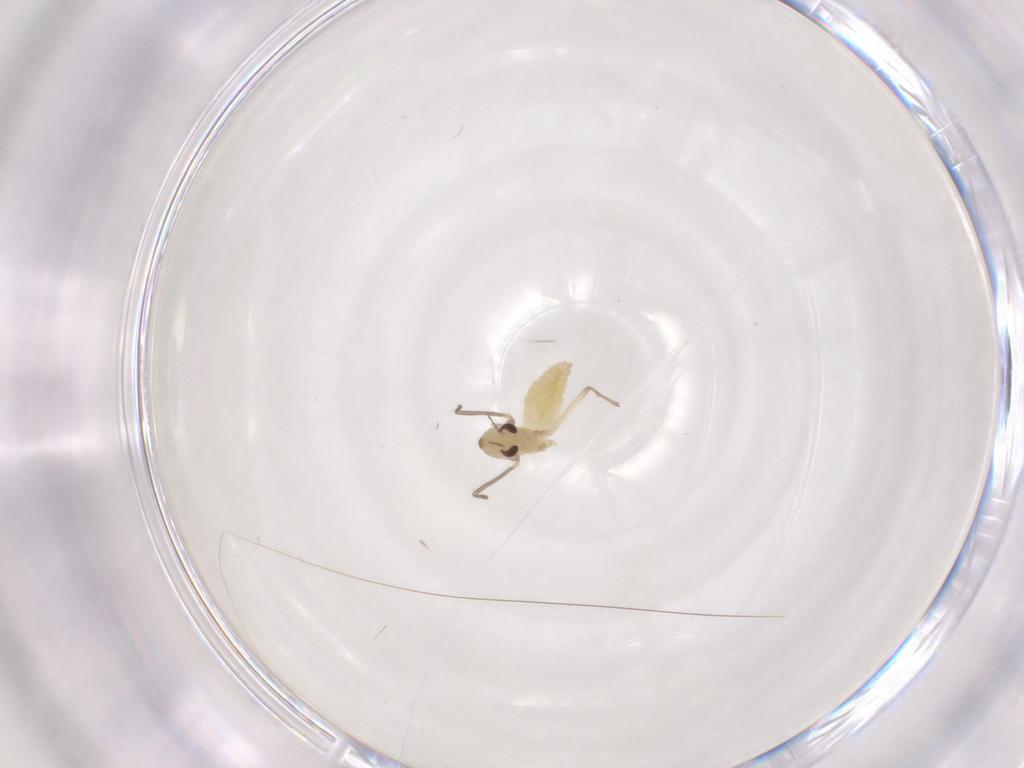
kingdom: Animalia
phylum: Arthropoda
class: Insecta
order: Diptera
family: Chironomidae
